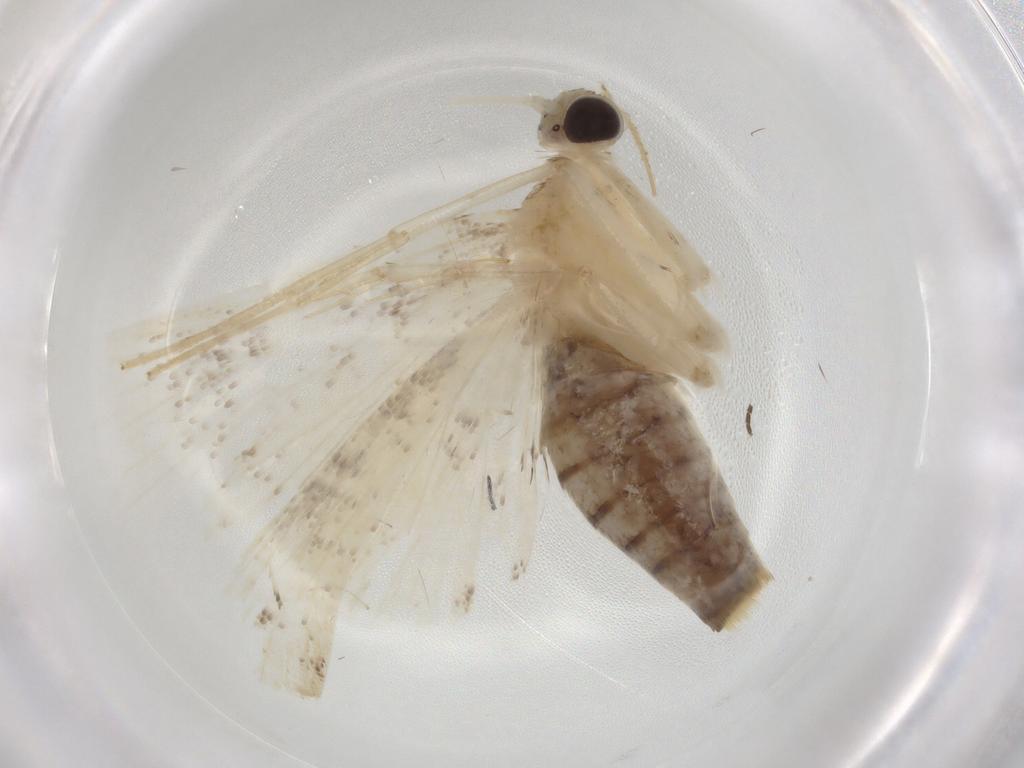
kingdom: Animalia
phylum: Arthropoda
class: Insecta
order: Lepidoptera
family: Crambidae
